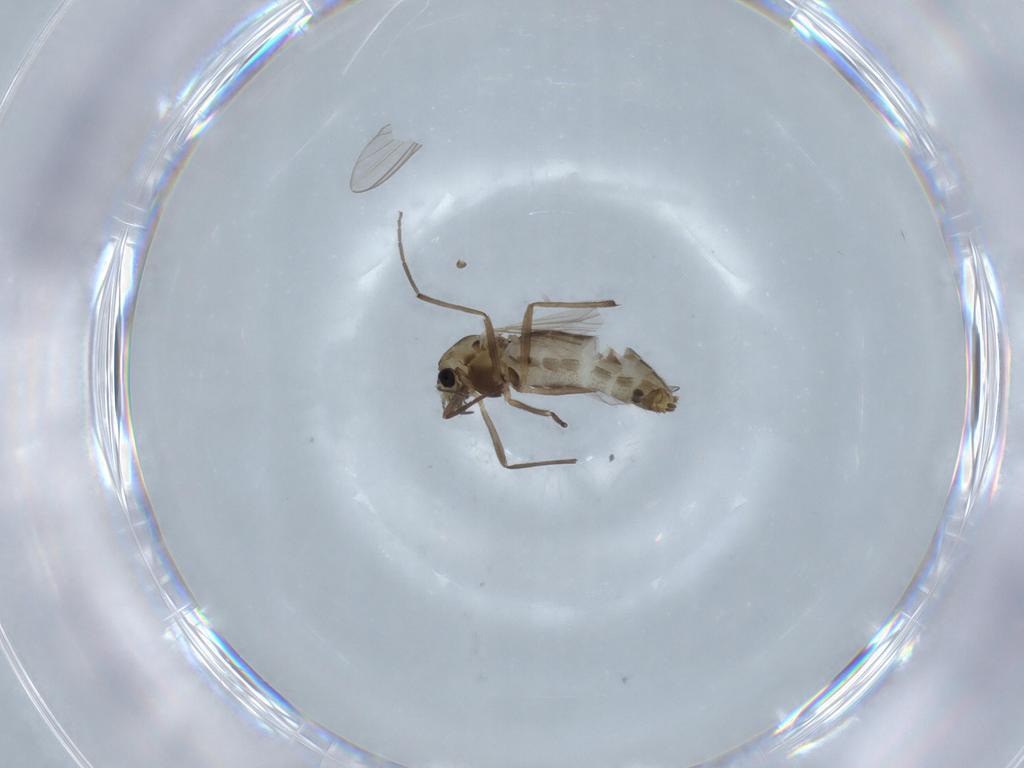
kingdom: Animalia
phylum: Arthropoda
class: Insecta
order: Diptera
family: Chironomidae
